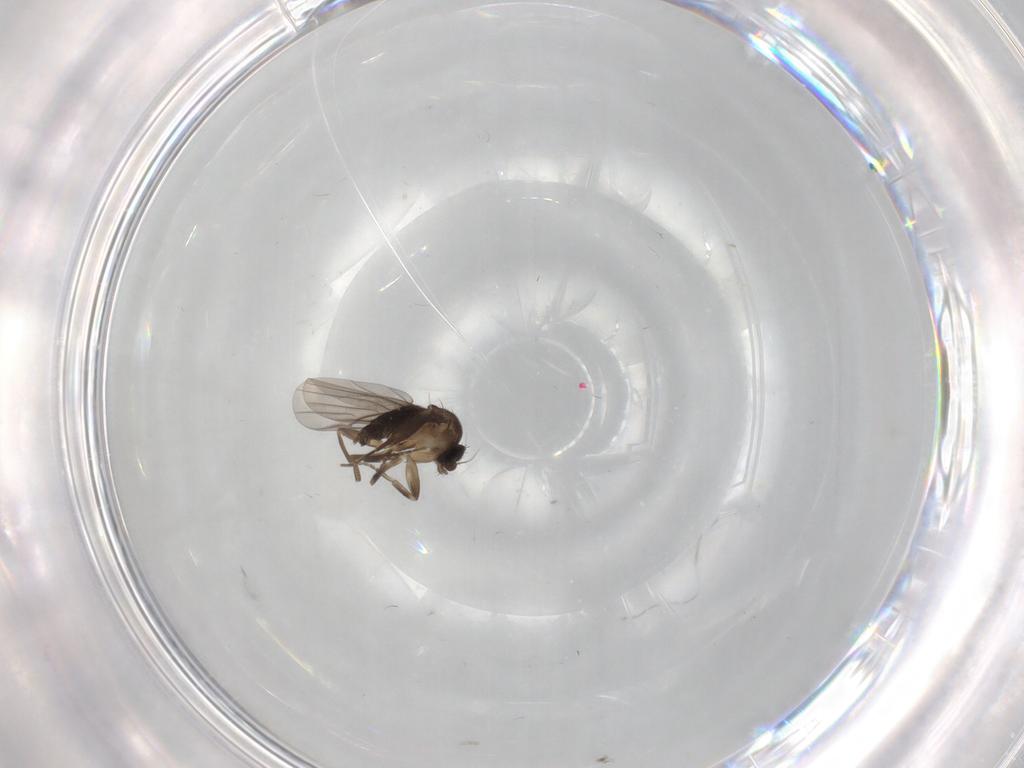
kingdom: Animalia
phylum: Arthropoda
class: Insecta
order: Diptera
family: Phoridae
